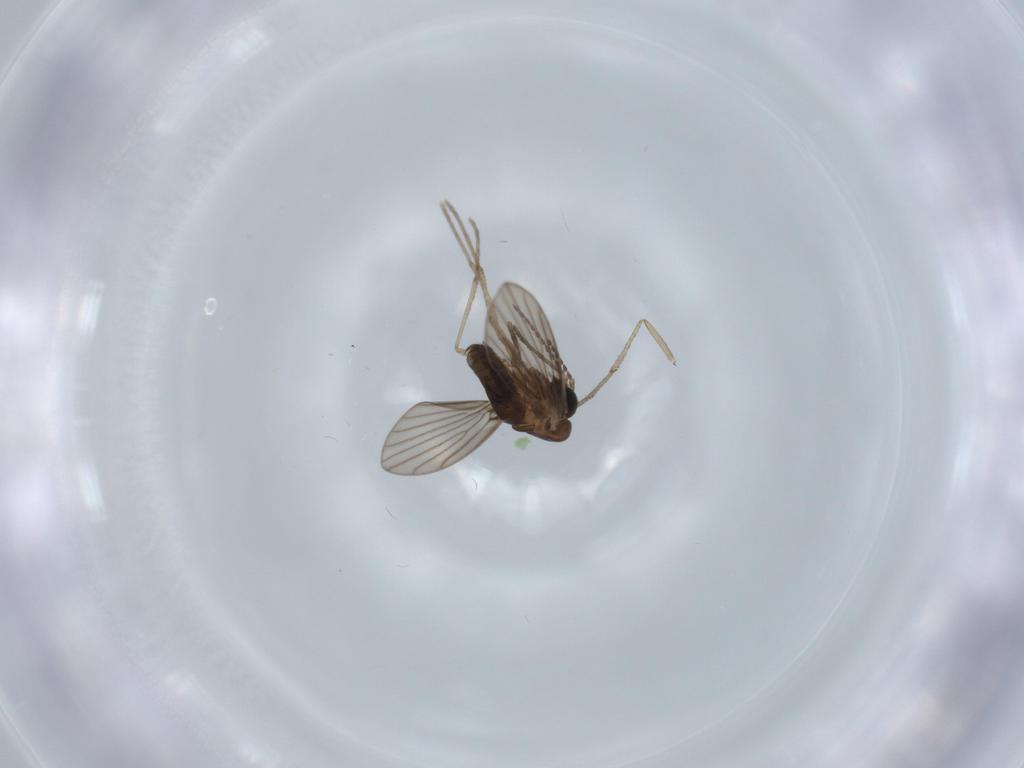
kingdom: Animalia
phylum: Arthropoda
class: Insecta
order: Diptera
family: Psychodidae
